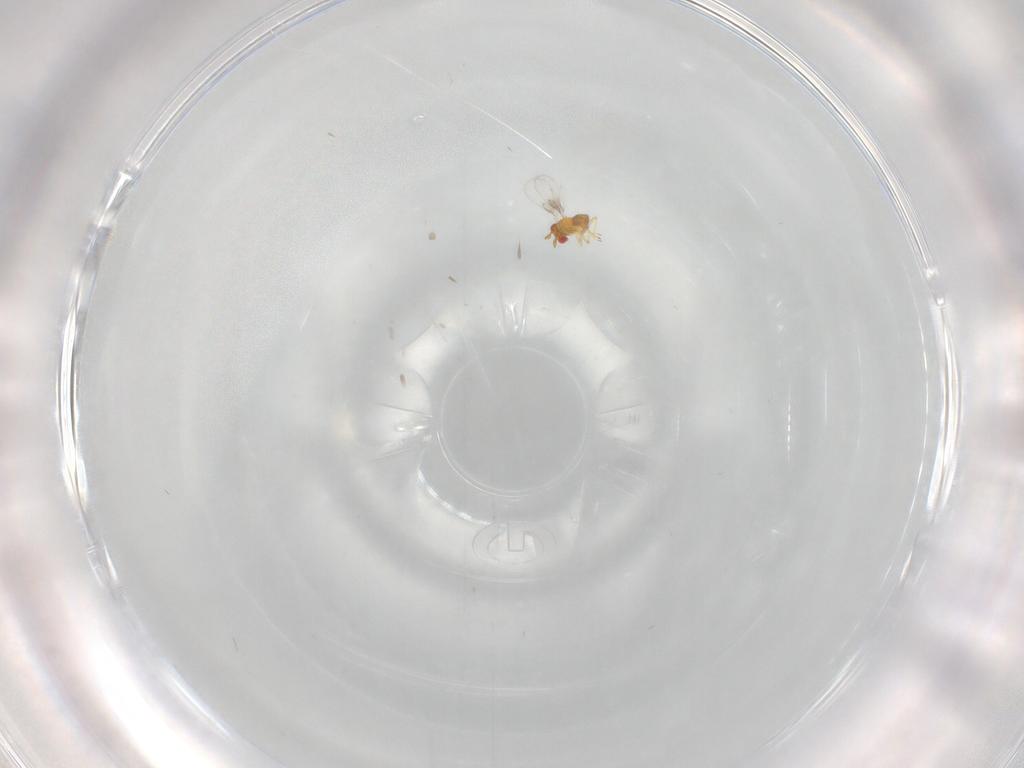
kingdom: Animalia
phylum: Arthropoda
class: Insecta
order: Hymenoptera
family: Trichogrammatidae
